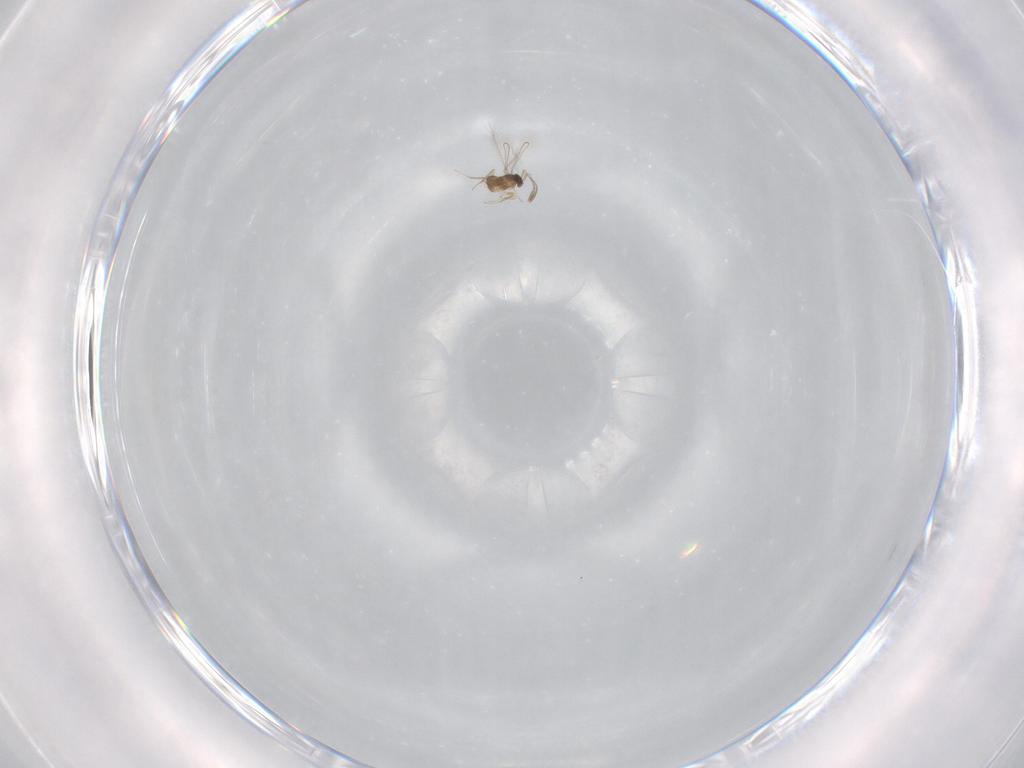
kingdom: Animalia
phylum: Arthropoda
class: Insecta
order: Hymenoptera
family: Mymaridae
